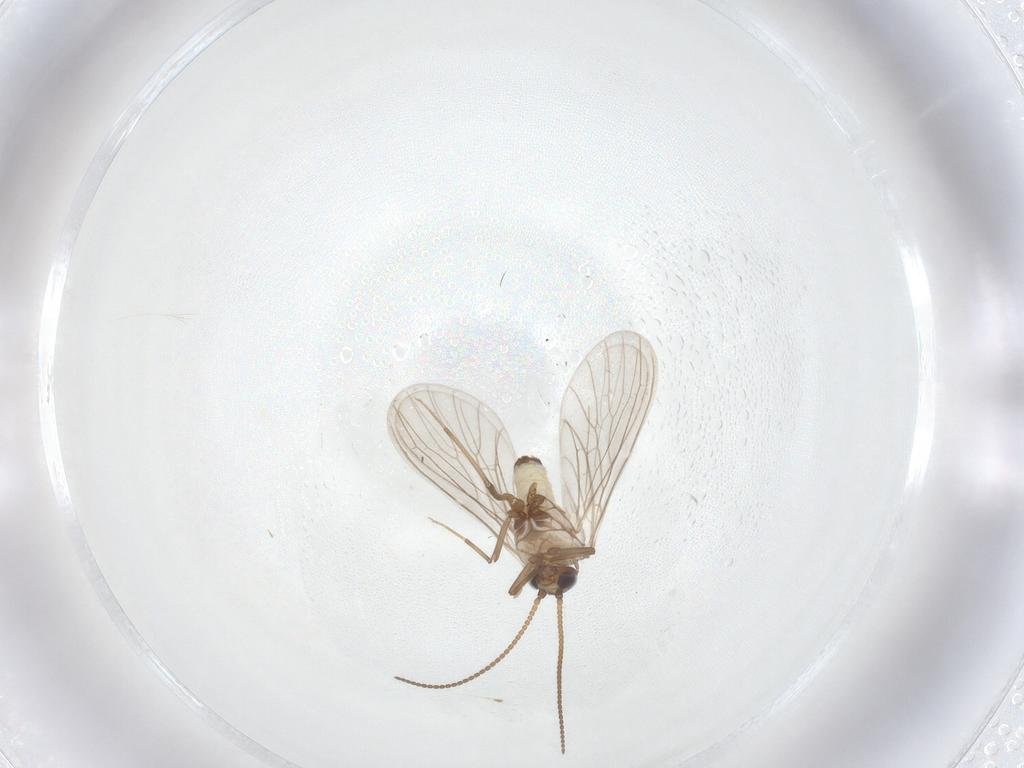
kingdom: Animalia
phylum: Arthropoda
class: Insecta
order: Neuroptera
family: Coniopterygidae
